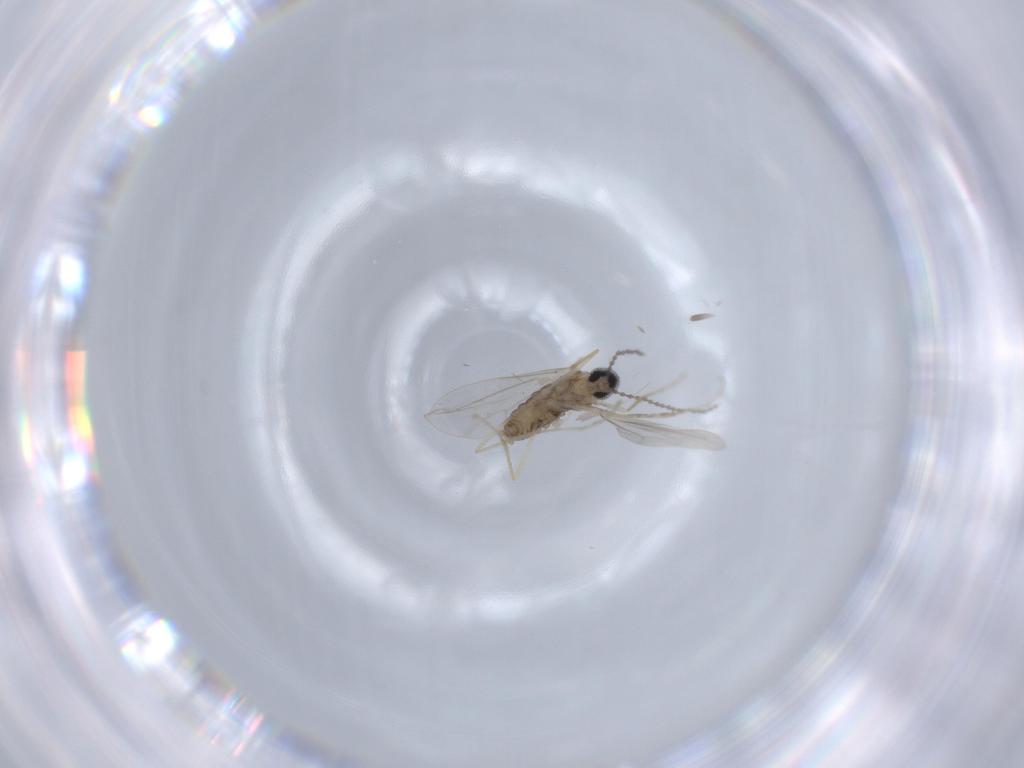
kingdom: Animalia
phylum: Arthropoda
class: Insecta
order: Diptera
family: Cecidomyiidae
